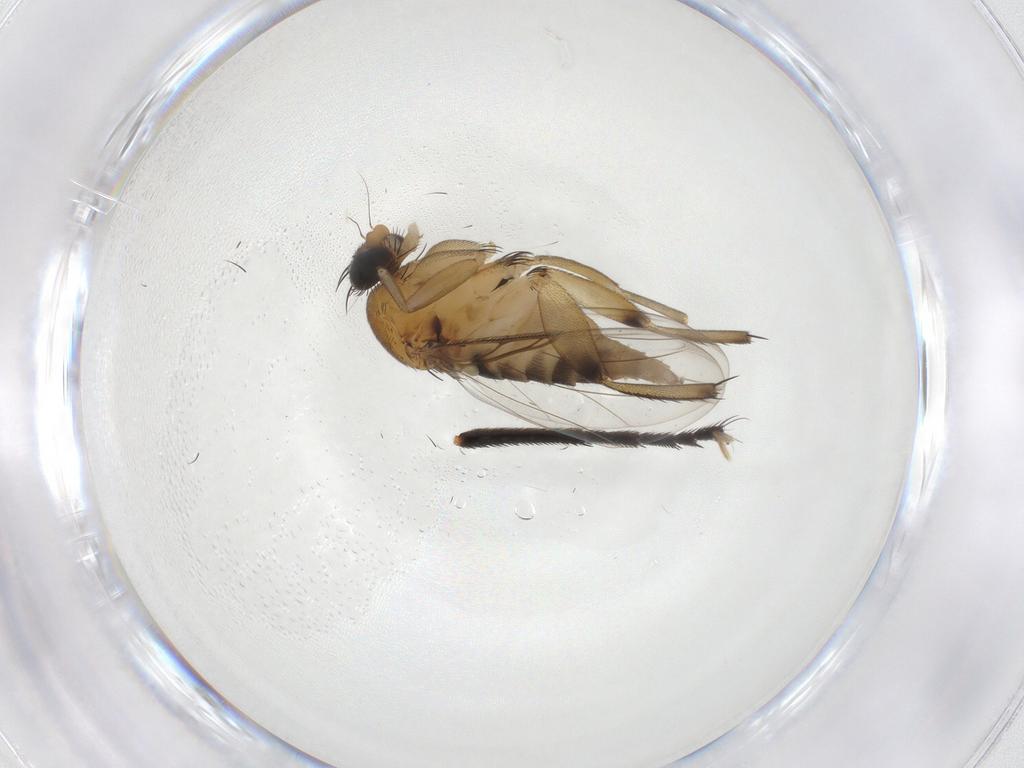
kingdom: Animalia
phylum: Arthropoda
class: Insecta
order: Diptera
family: Phoridae
